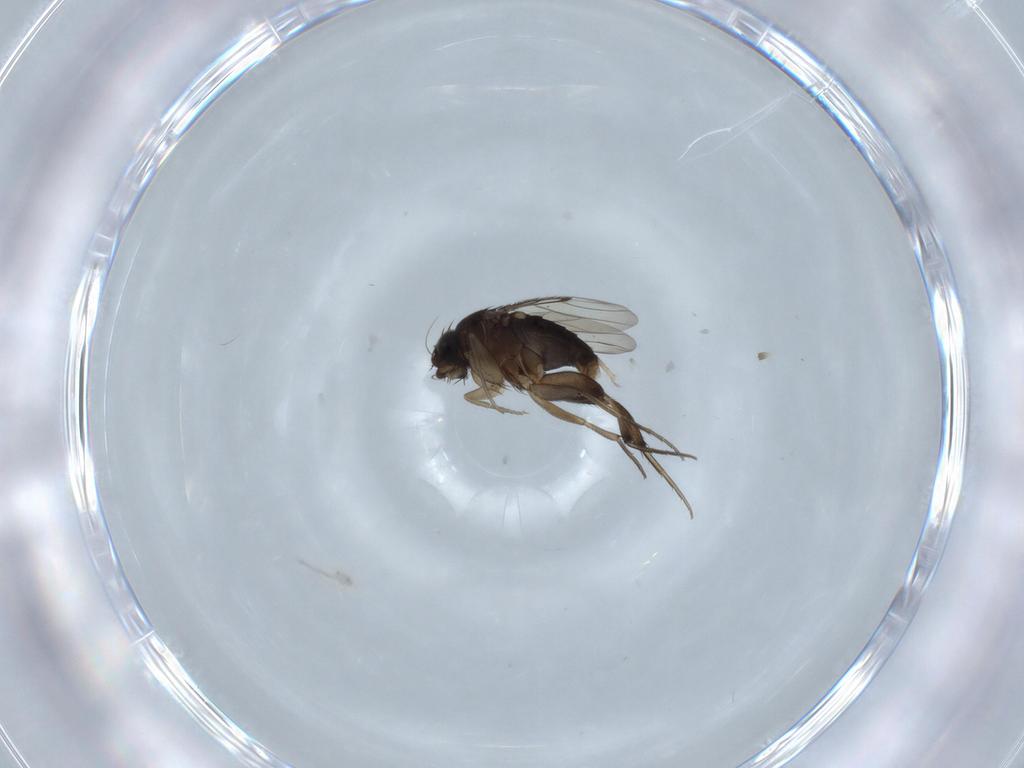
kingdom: Animalia
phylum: Arthropoda
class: Insecta
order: Diptera
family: Phoridae
